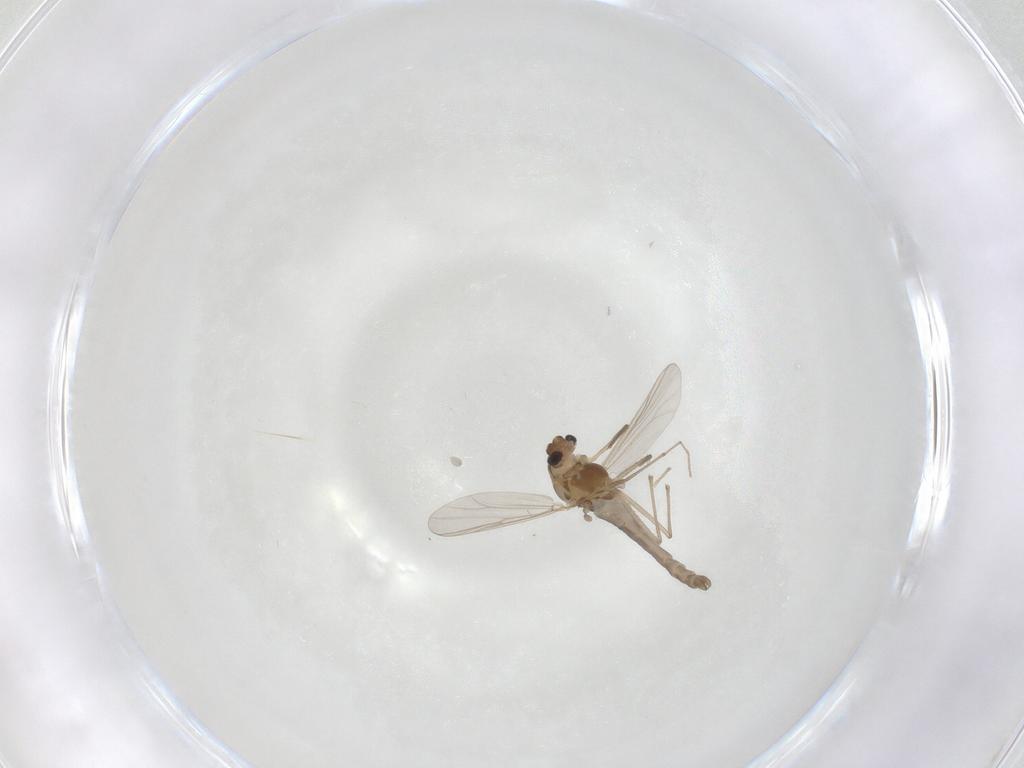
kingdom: Animalia
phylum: Arthropoda
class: Insecta
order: Diptera
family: Chironomidae
